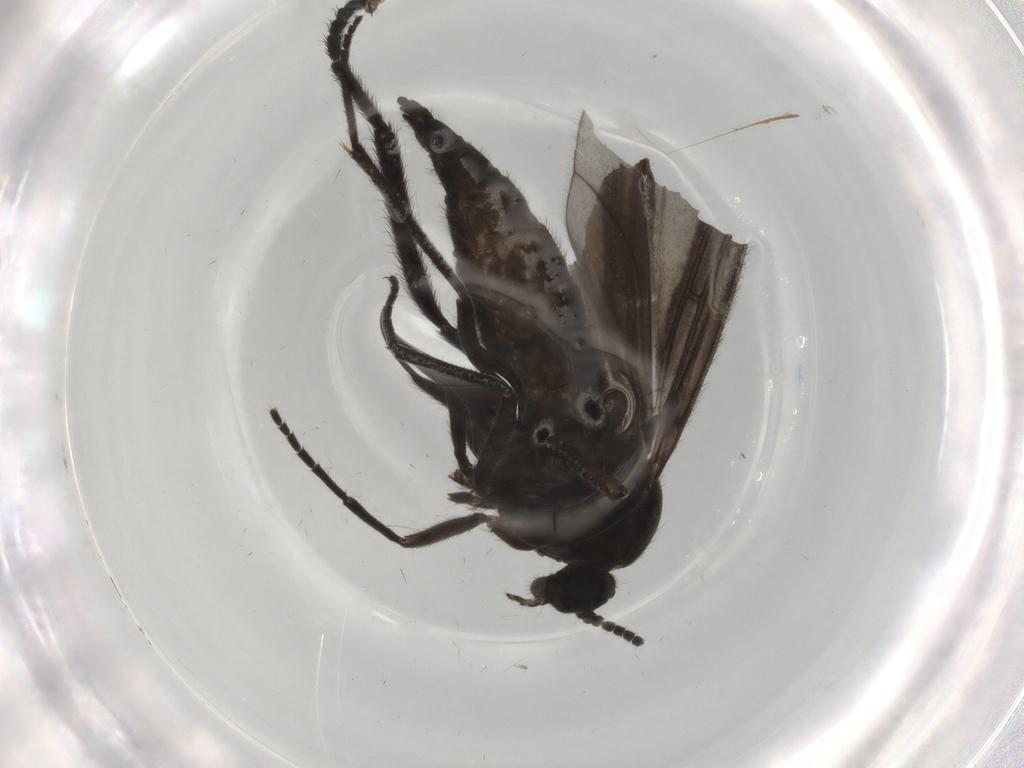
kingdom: Animalia
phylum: Arthropoda
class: Insecta
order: Diptera
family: Bibionidae
